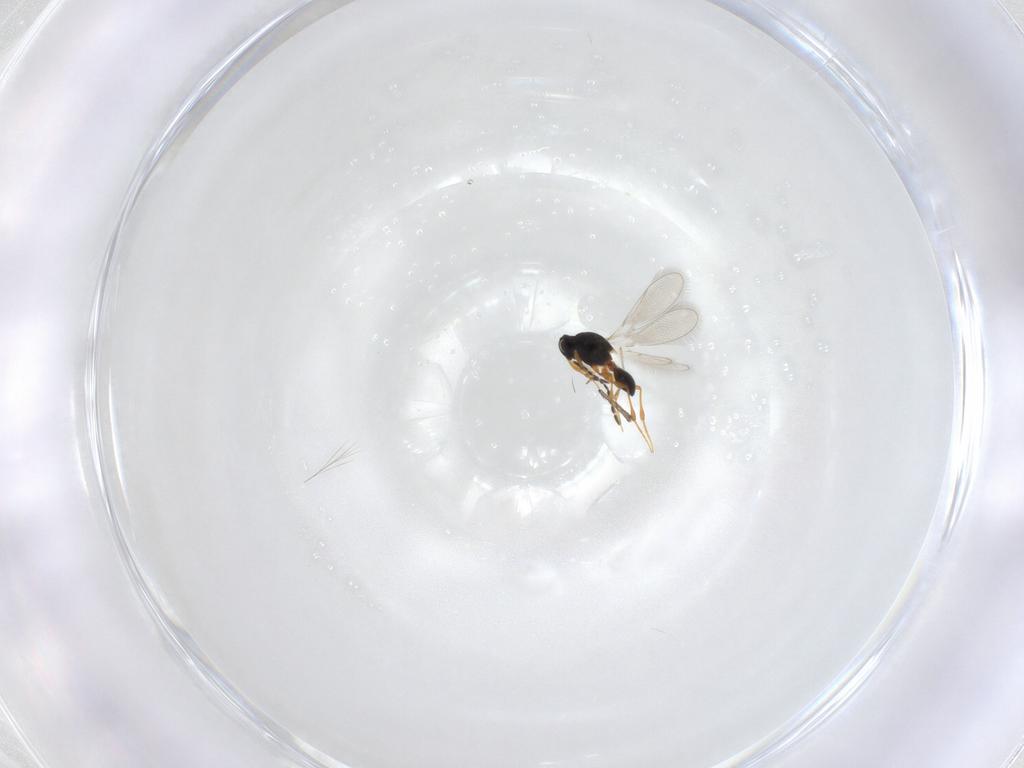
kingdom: Animalia
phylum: Arthropoda
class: Insecta
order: Diptera
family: Chironomidae
